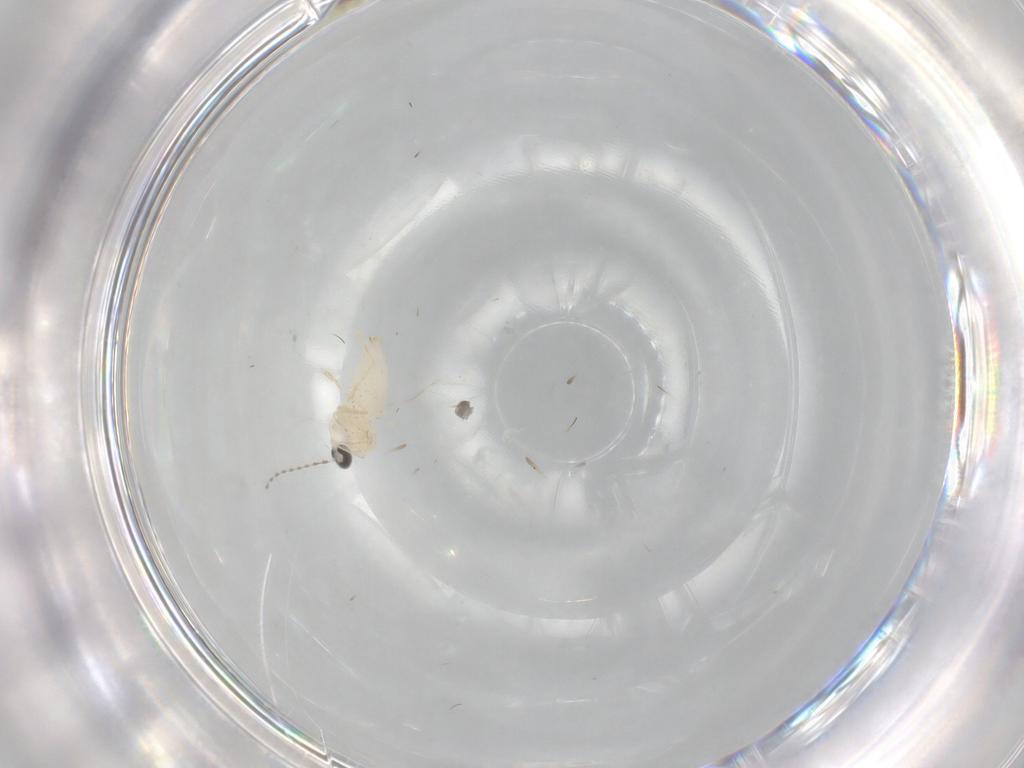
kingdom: Animalia
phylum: Arthropoda
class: Insecta
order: Diptera
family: Cecidomyiidae
